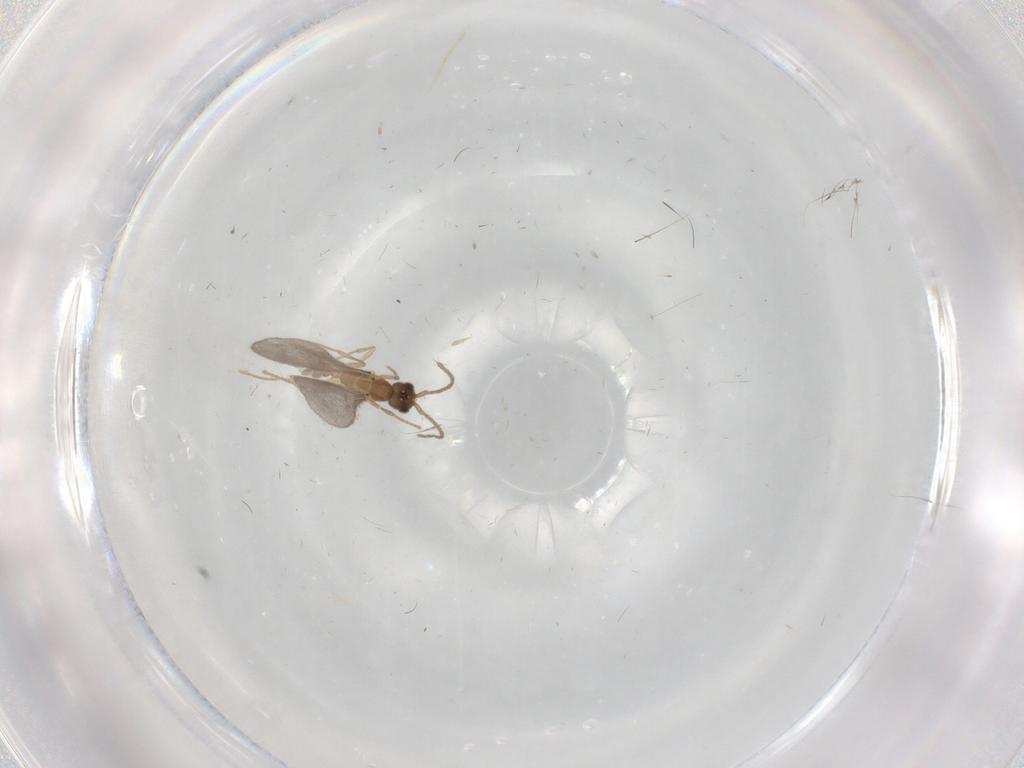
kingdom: Animalia
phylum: Arthropoda
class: Insecta
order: Hymenoptera
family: Formicidae
